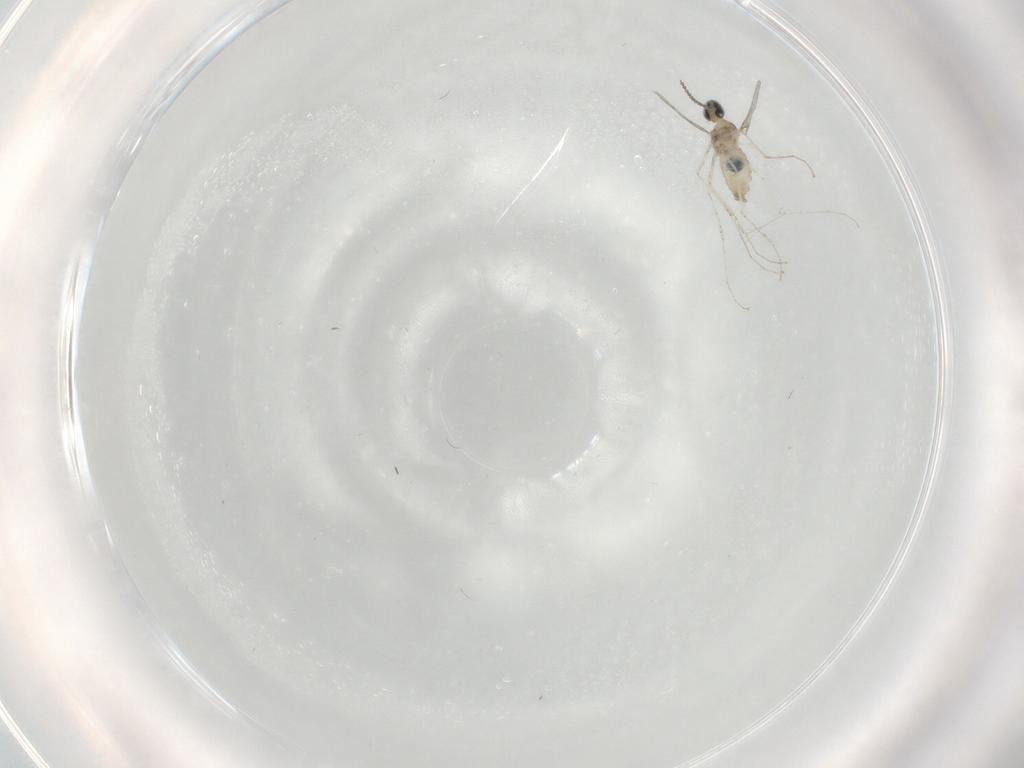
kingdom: Animalia
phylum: Arthropoda
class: Insecta
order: Diptera
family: Cecidomyiidae
